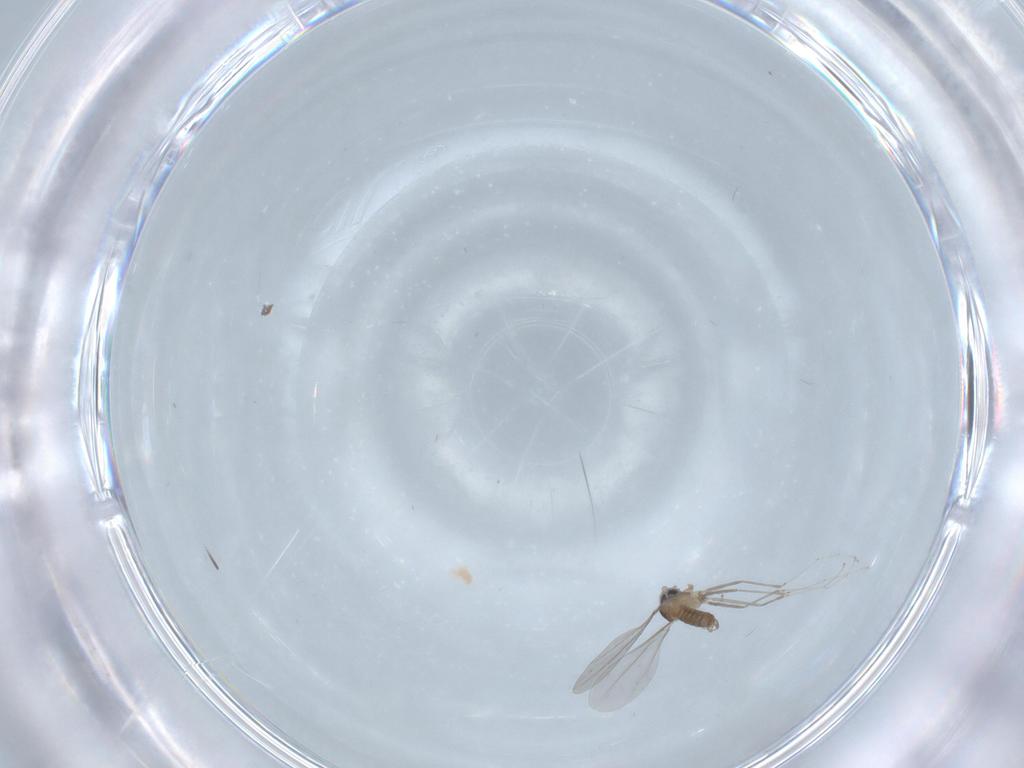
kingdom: Animalia
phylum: Arthropoda
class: Insecta
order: Diptera
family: Cecidomyiidae
